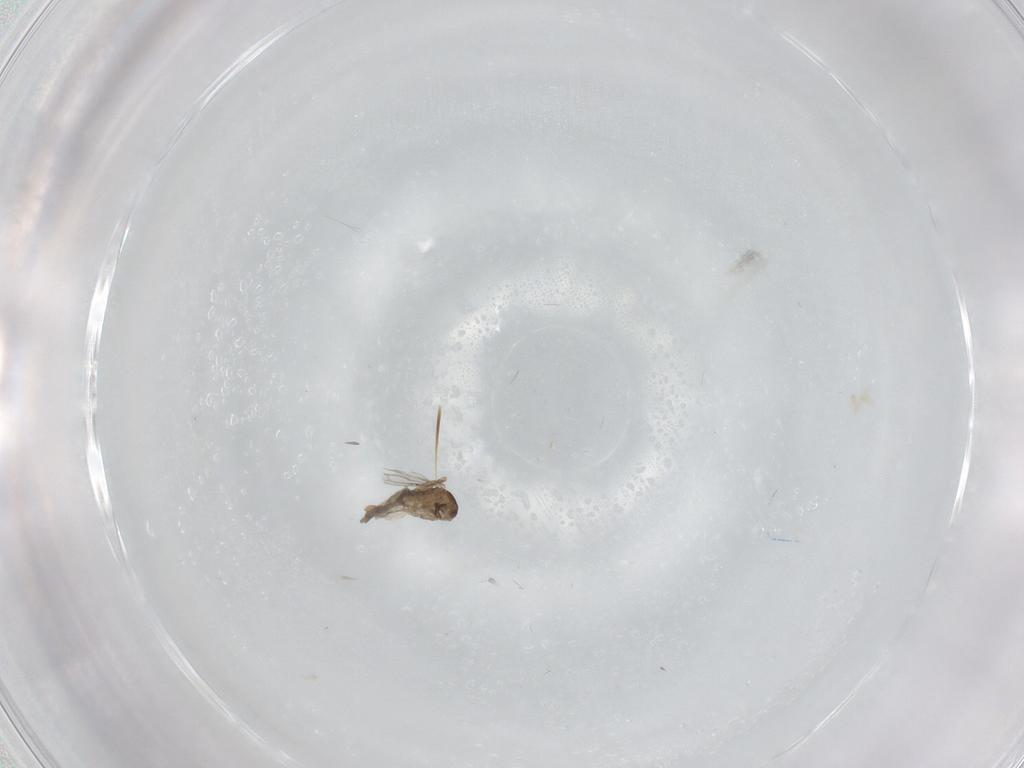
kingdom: Animalia
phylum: Arthropoda
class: Insecta
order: Diptera
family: Cecidomyiidae
